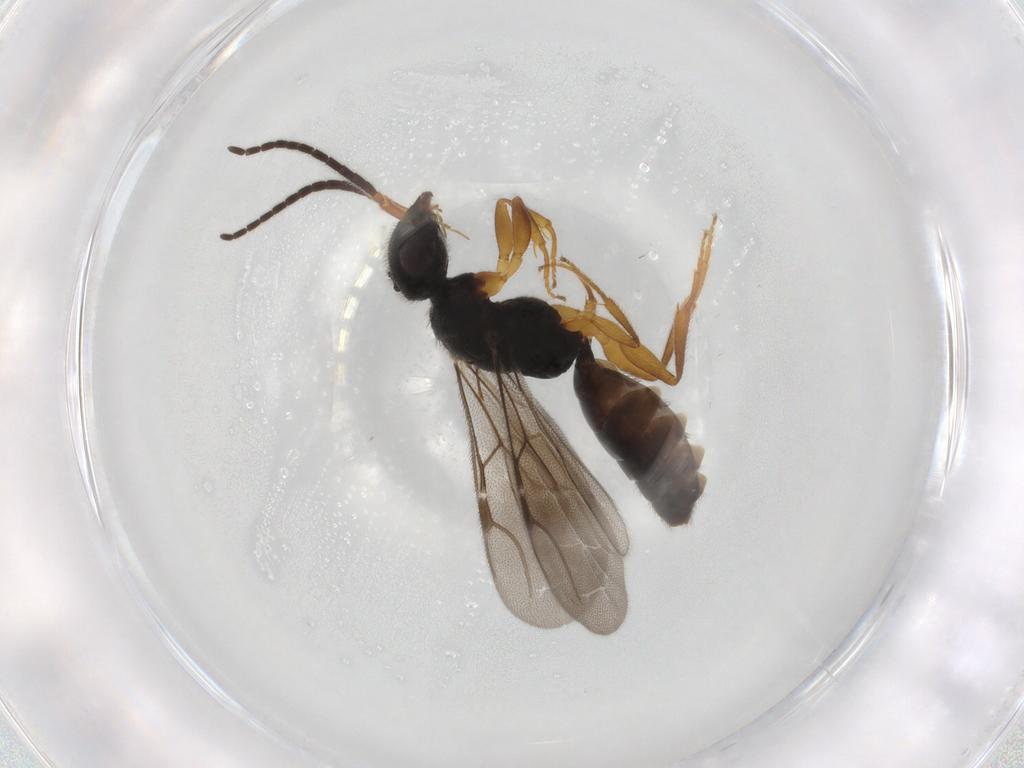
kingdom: Animalia
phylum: Arthropoda
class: Insecta
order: Hymenoptera
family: Bethylidae
